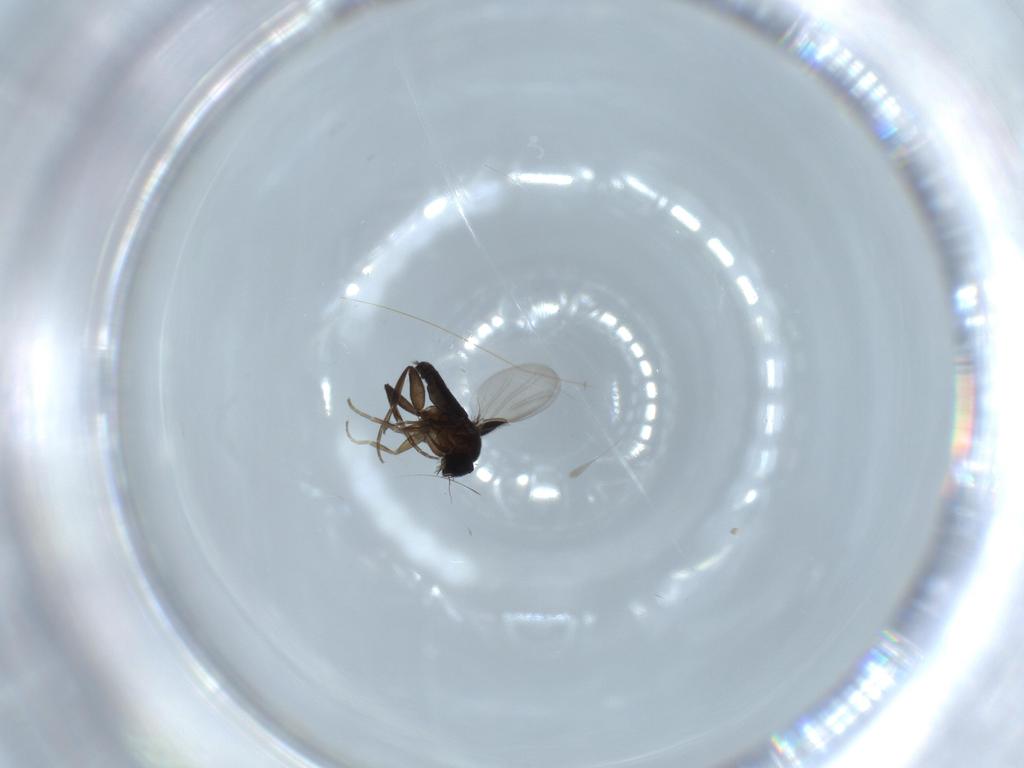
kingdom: Animalia
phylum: Arthropoda
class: Insecta
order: Diptera
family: Phoridae
